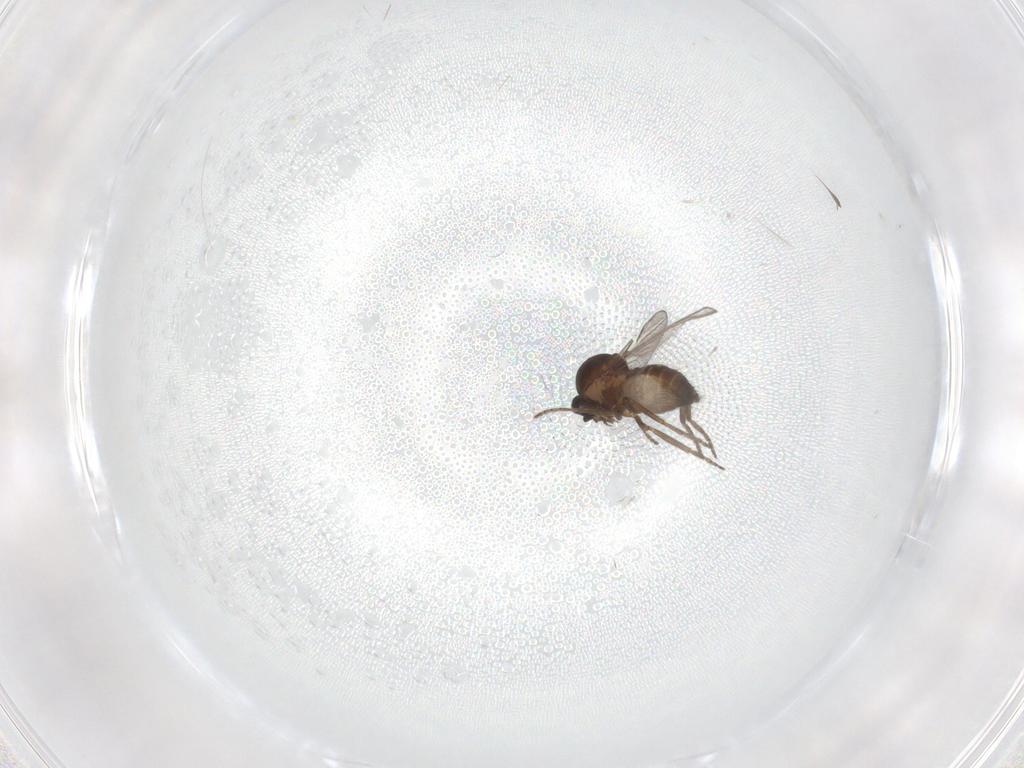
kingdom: Animalia
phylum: Arthropoda
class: Insecta
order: Diptera
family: Ceratopogonidae
